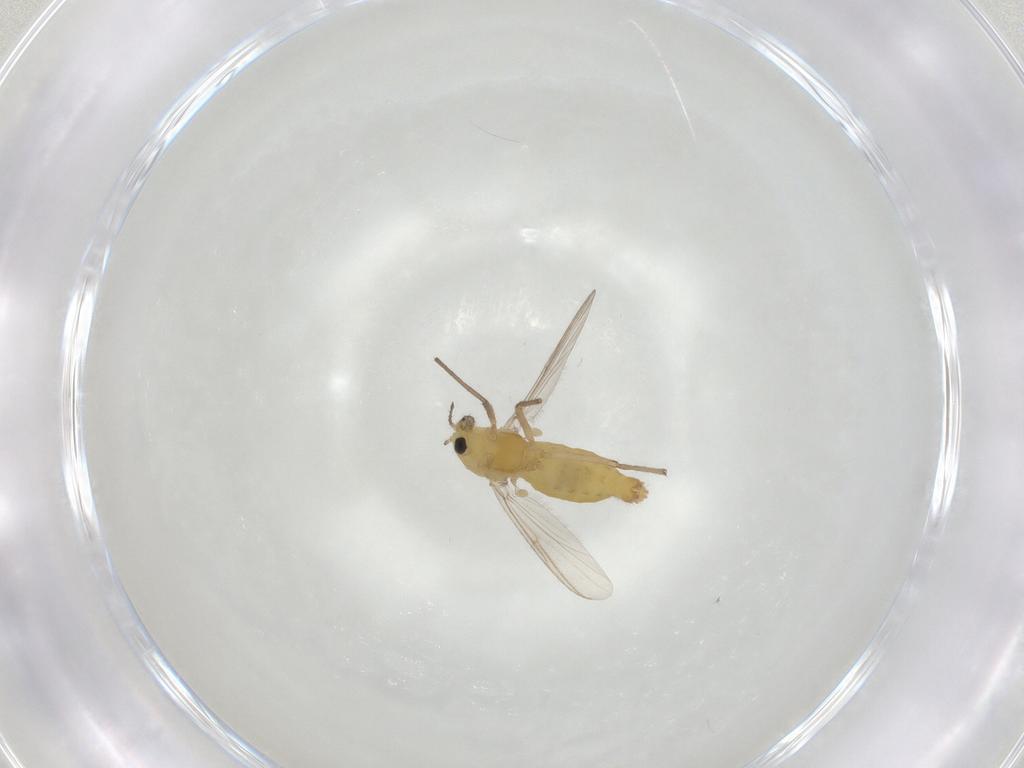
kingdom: Animalia
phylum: Arthropoda
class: Insecta
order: Diptera
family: Chironomidae
